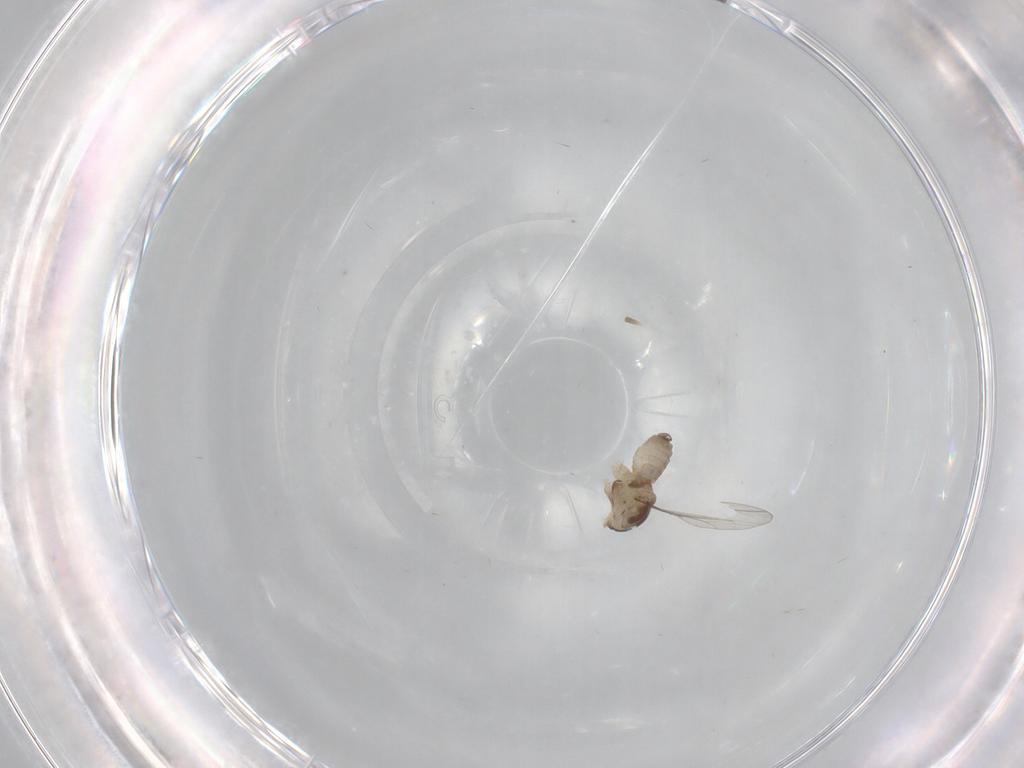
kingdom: Animalia
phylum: Arthropoda
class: Insecta
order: Diptera
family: Cecidomyiidae
